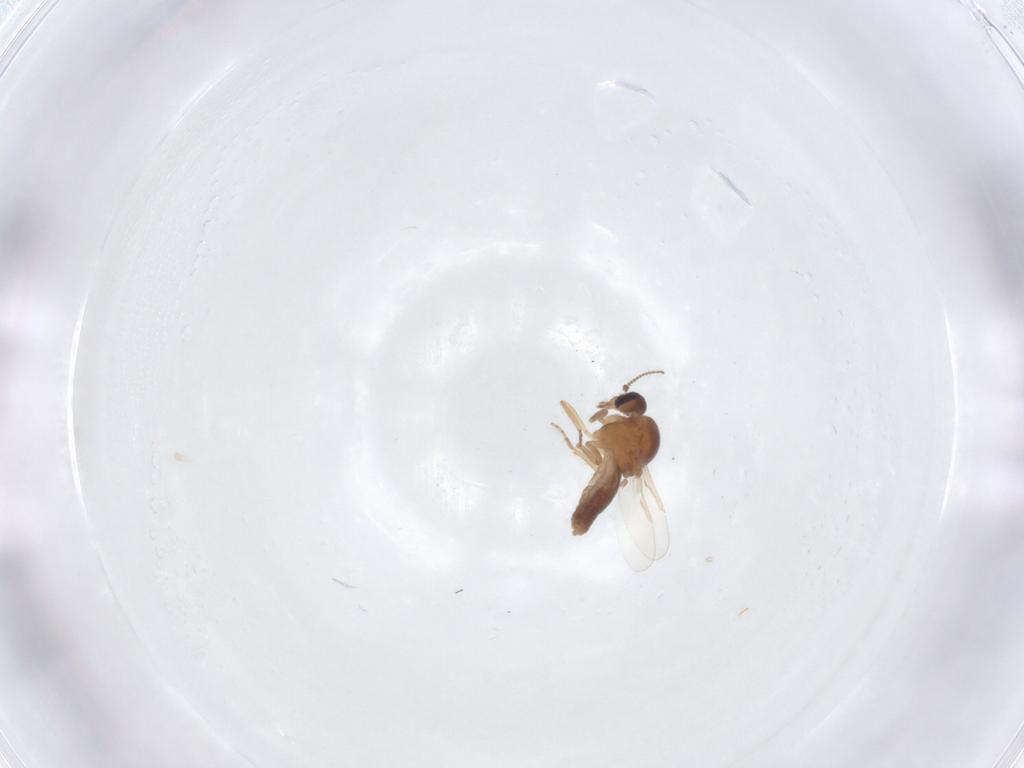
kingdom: Animalia
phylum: Arthropoda
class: Insecta
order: Diptera
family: Ceratopogonidae
